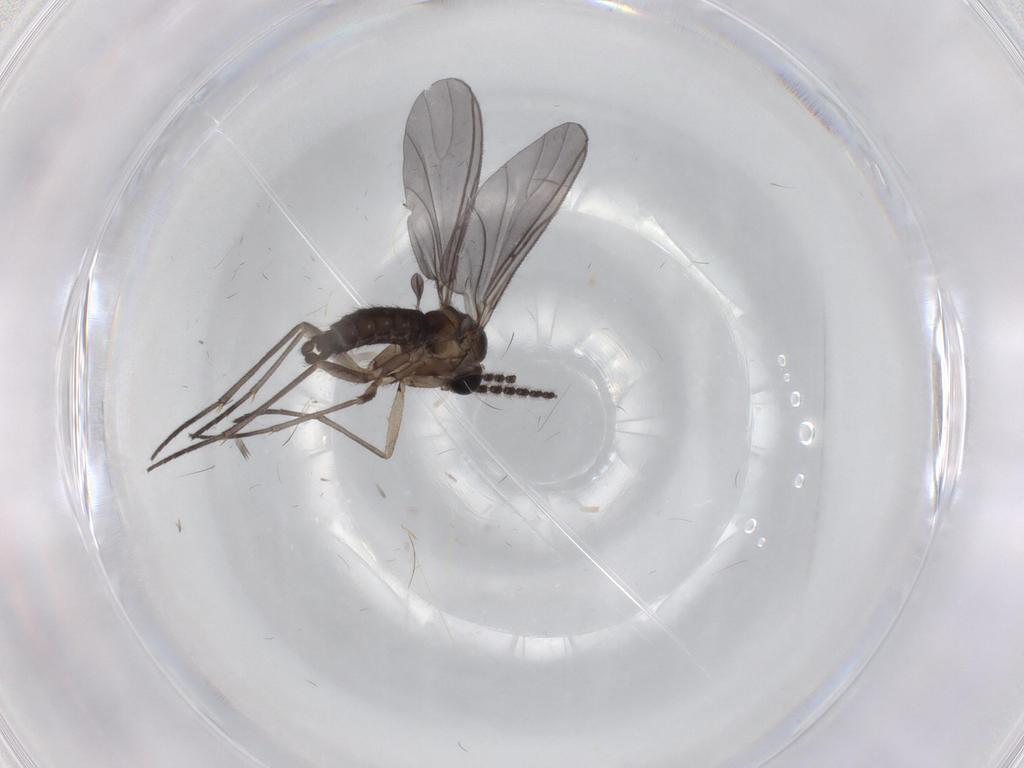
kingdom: Animalia
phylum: Arthropoda
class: Insecta
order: Diptera
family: Sciaridae
